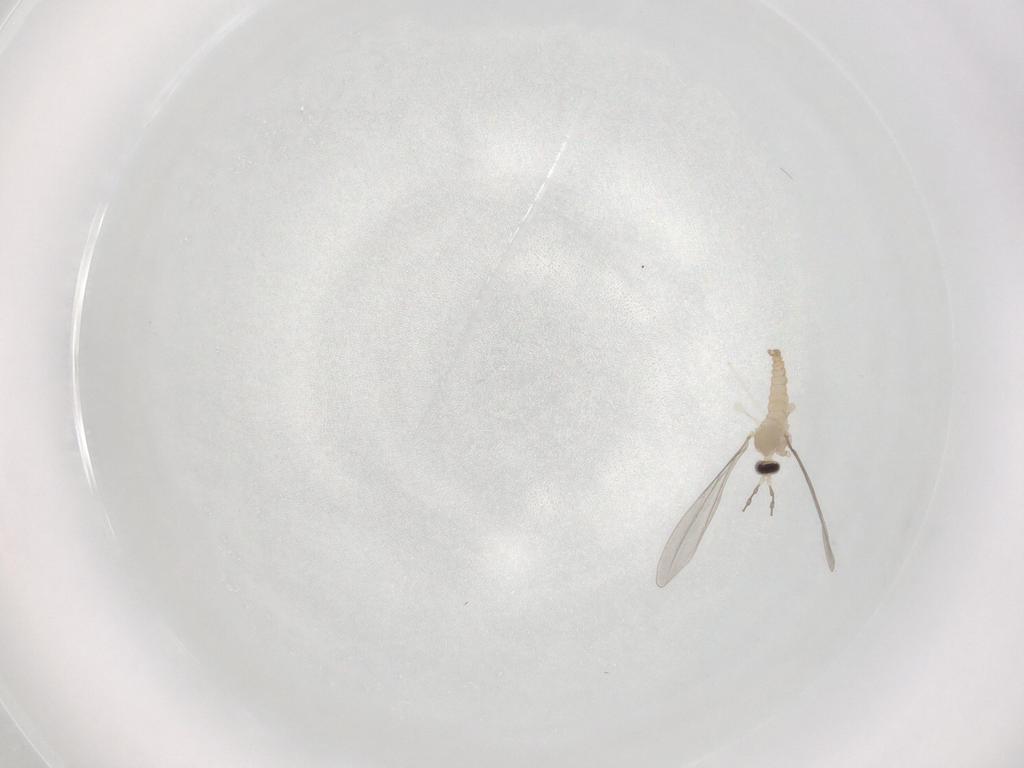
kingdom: Animalia
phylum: Arthropoda
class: Insecta
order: Diptera
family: Cecidomyiidae
